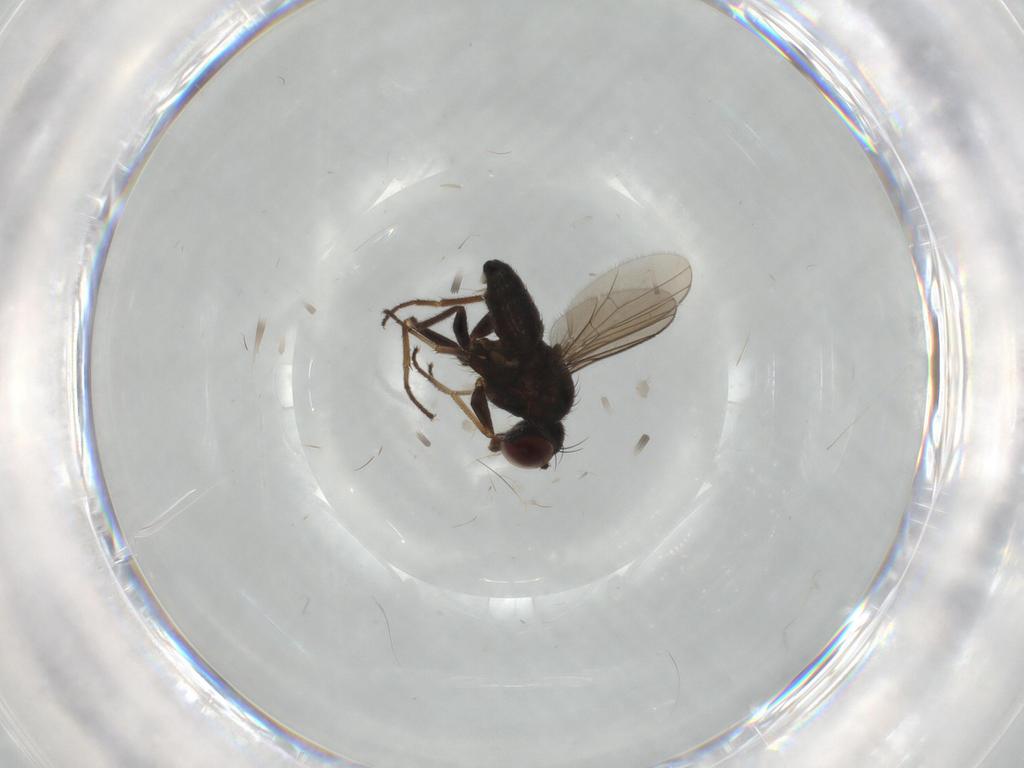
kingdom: Animalia
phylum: Arthropoda
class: Insecta
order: Diptera
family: Dolichopodidae
